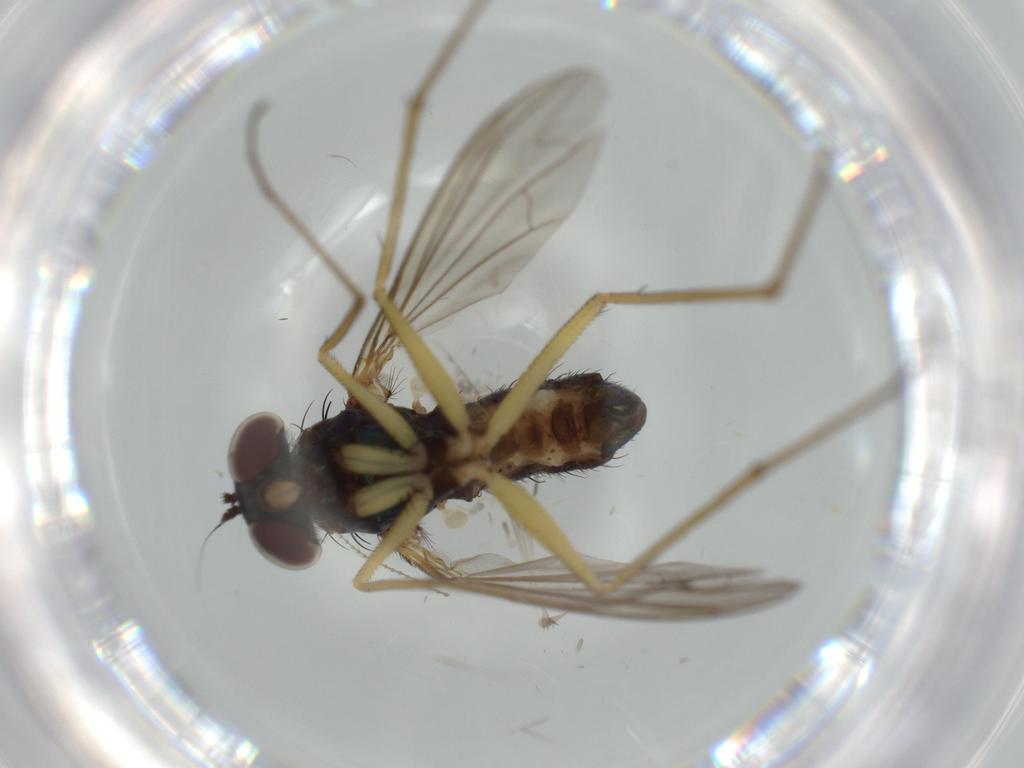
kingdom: Animalia
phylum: Arthropoda
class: Insecta
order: Diptera
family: Dolichopodidae
